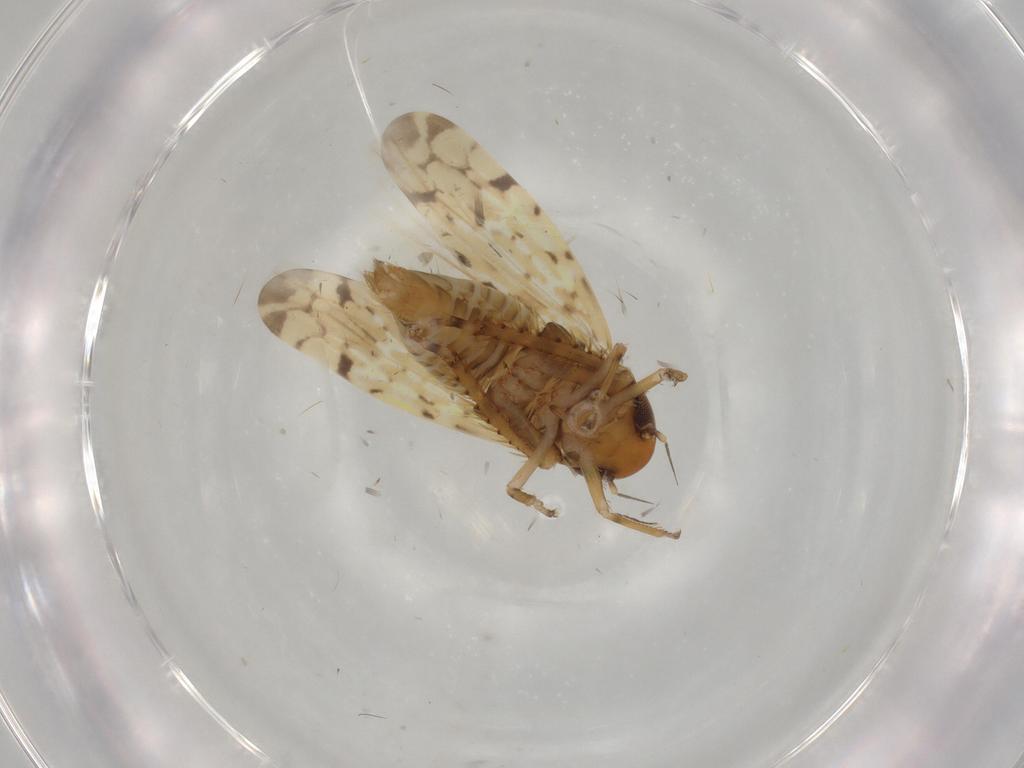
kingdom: Animalia
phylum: Arthropoda
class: Insecta
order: Hemiptera
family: Cicadellidae
